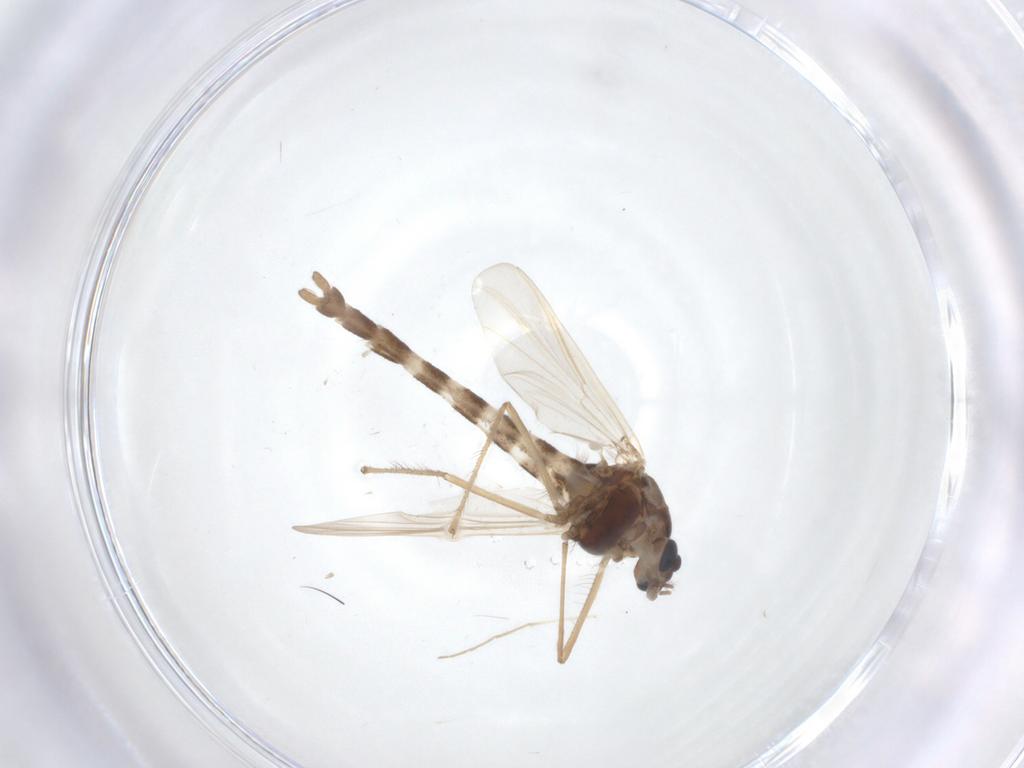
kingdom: Animalia
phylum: Arthropoda
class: Insecta
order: Diptera
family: Chironomidae
